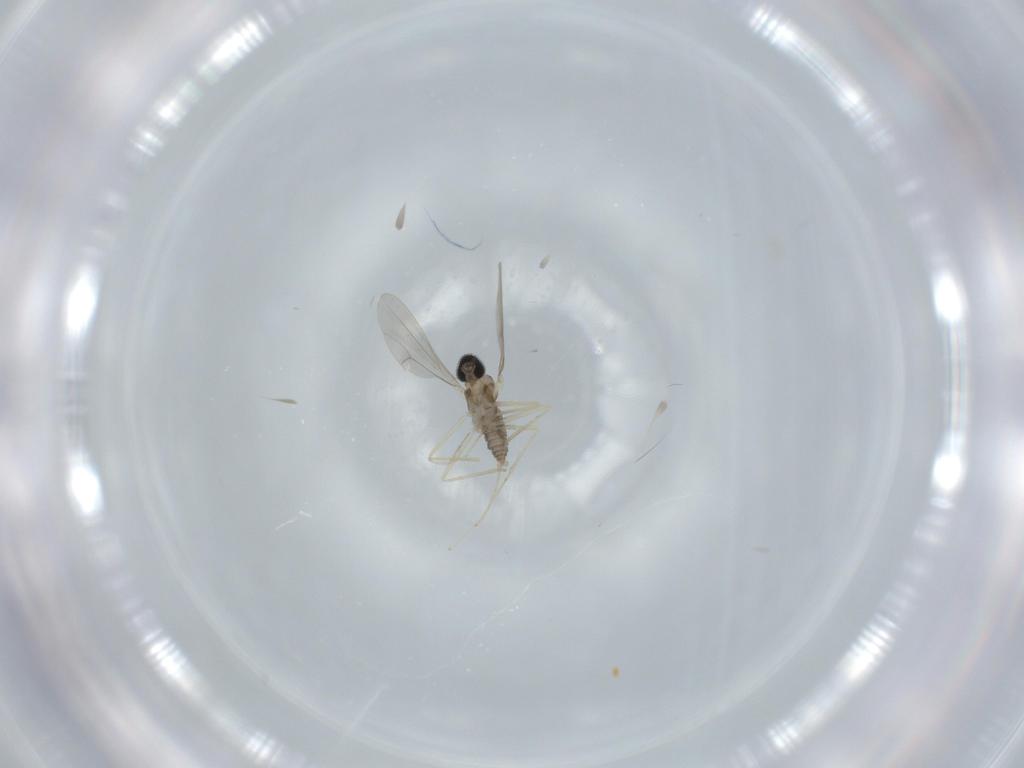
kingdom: Animalia
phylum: Arthropoda
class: Insecta
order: Diptera
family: Cecidomyiidae
